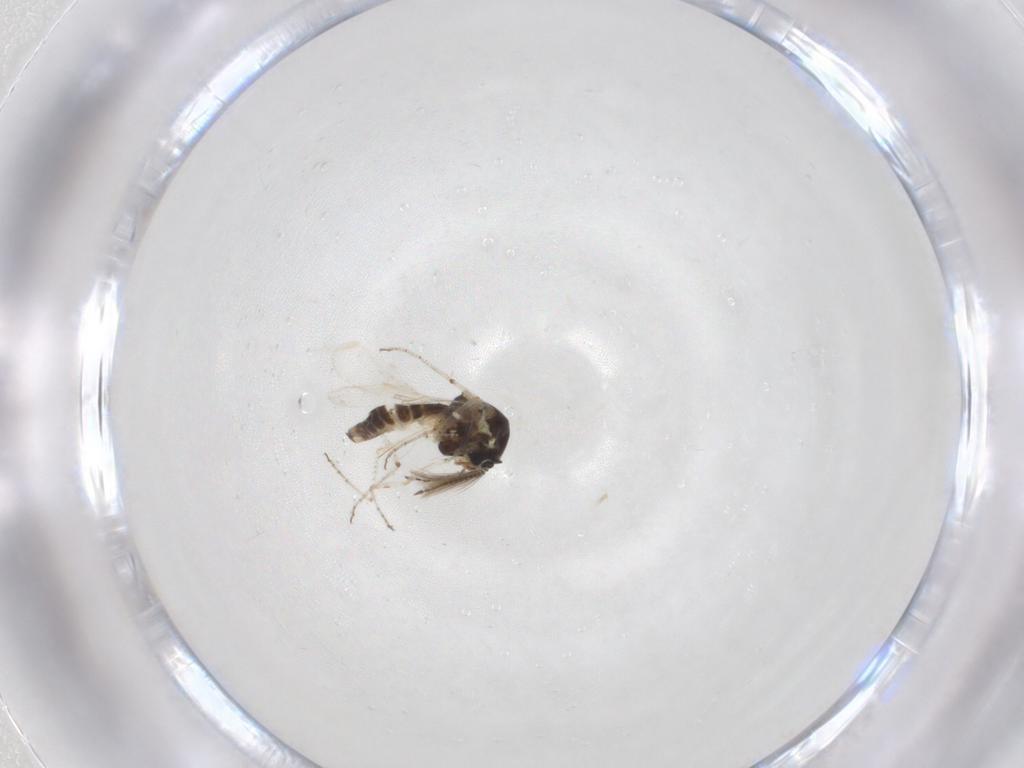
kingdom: Animalia
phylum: Arthropoda
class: Insecta
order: Diptera
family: Ceratopogonidae
